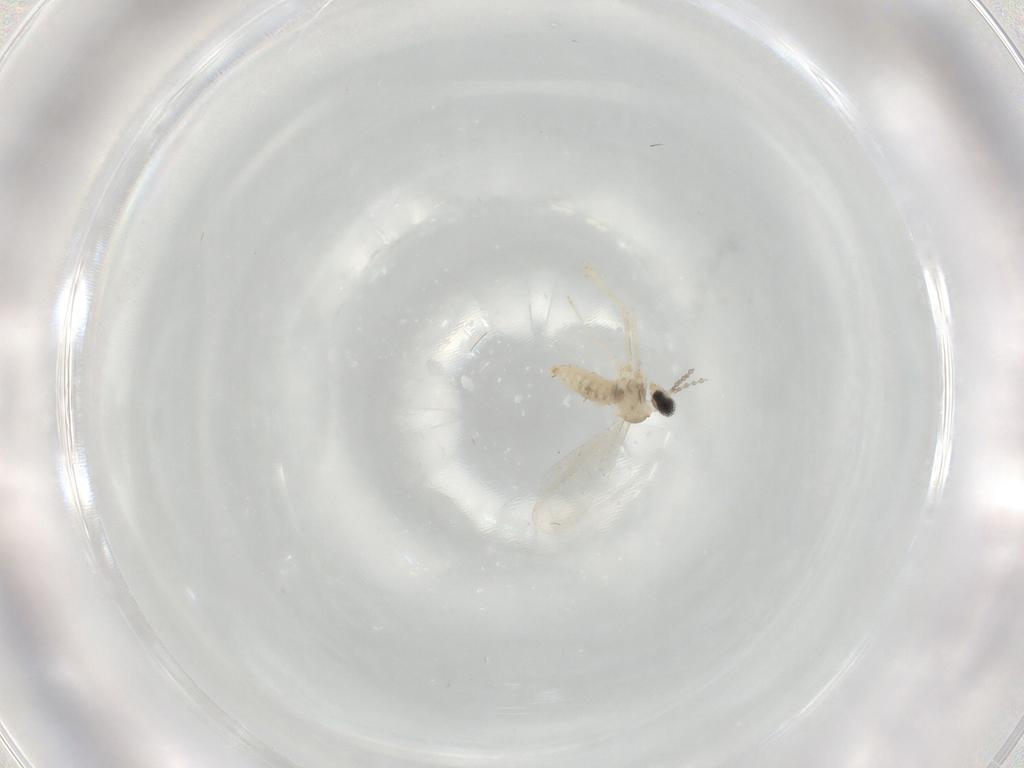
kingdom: Animalia
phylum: Arthropoda
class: Insecta
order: Diptera
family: Cecidomyiidae
